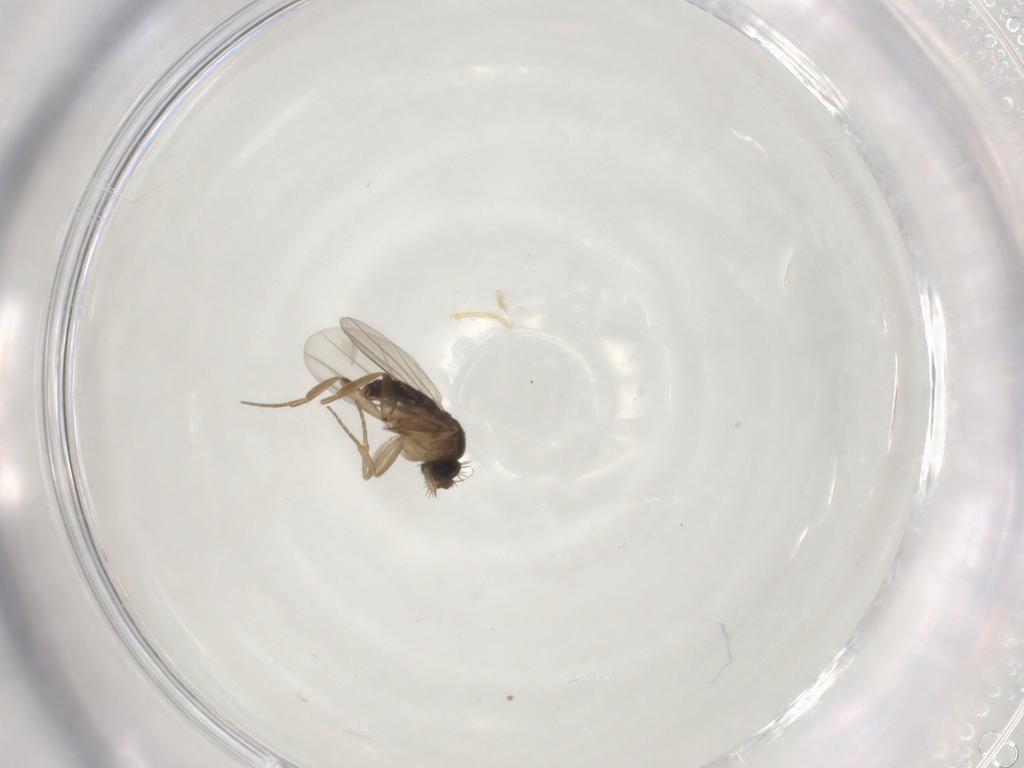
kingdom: Animalia
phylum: Arthropoda
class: Insecta
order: Diptera
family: Phoridae
